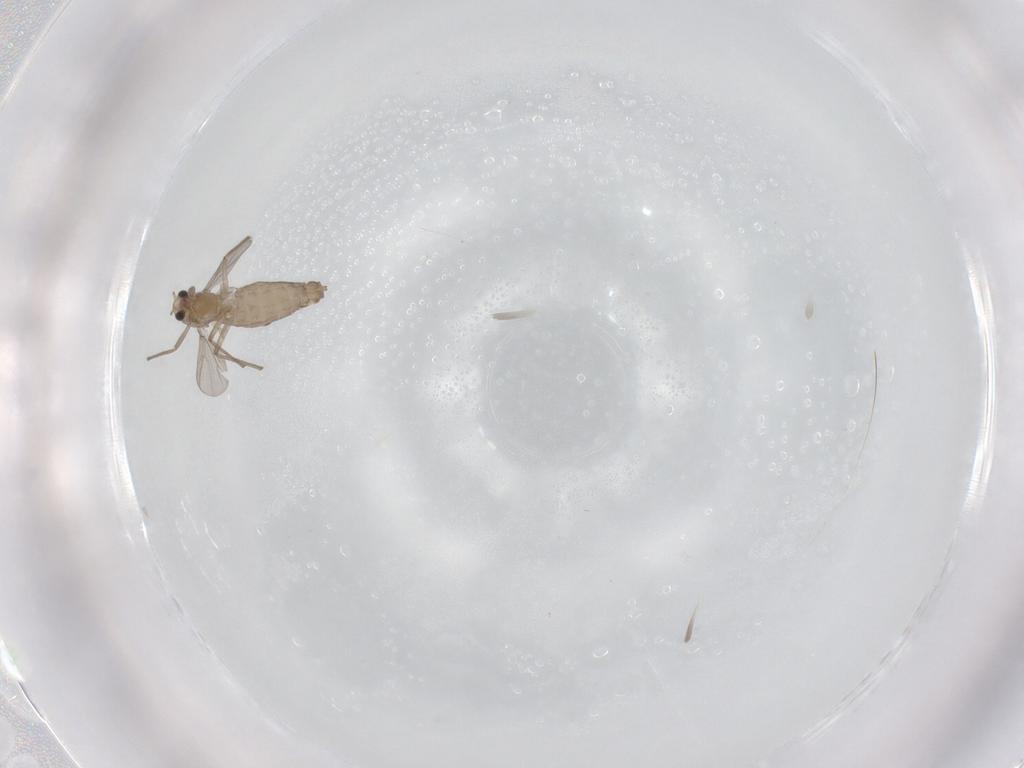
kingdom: Animalia
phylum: Arthropoda
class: Insecta
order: Diptera
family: Chironomidae
